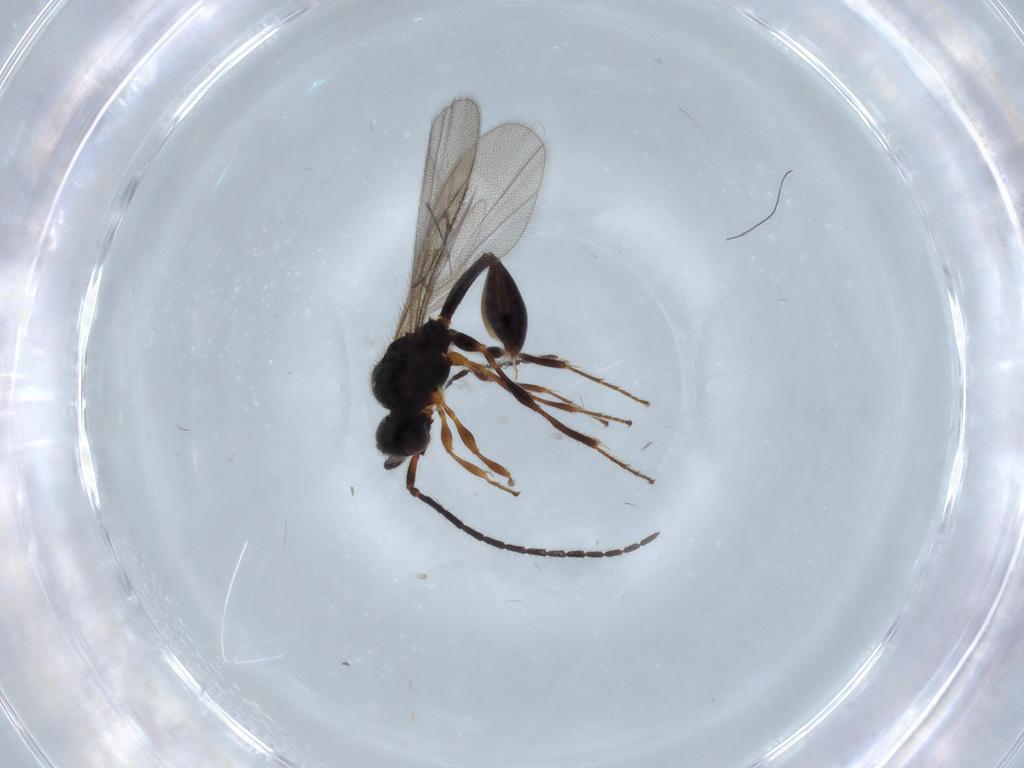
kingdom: Animalia
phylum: Arthropoda
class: Insecta
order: Hymenoptera
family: Diapriidae
